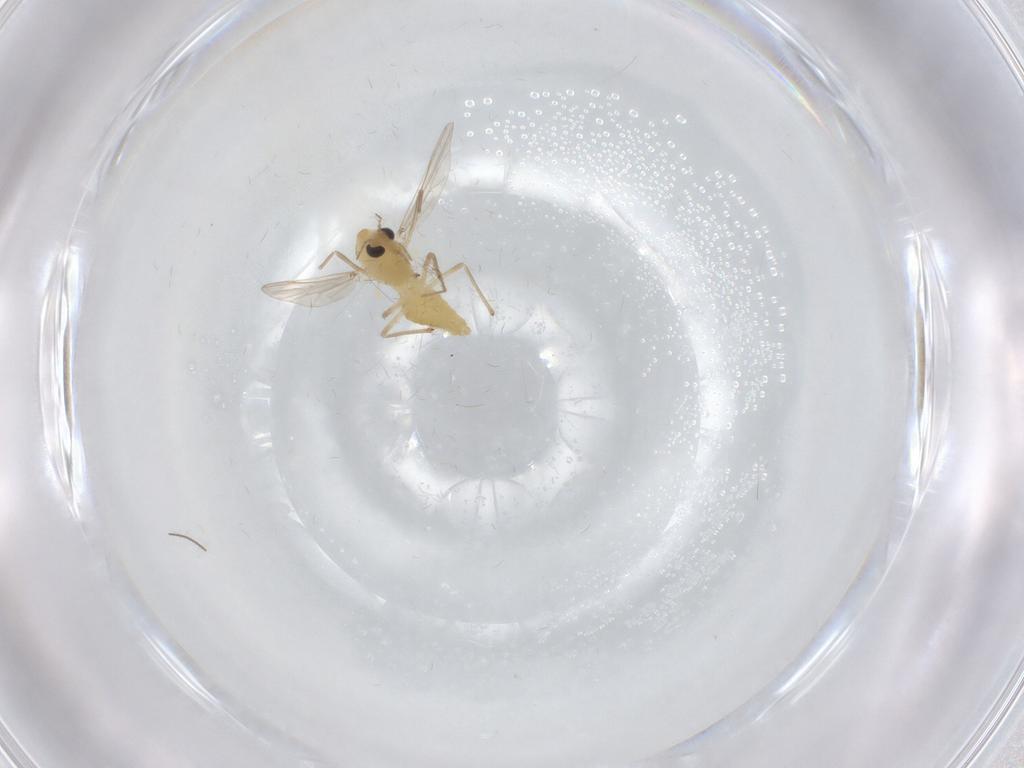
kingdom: Animalia
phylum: Arthropoda
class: Insecta
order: Diptera
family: Chironomidae
